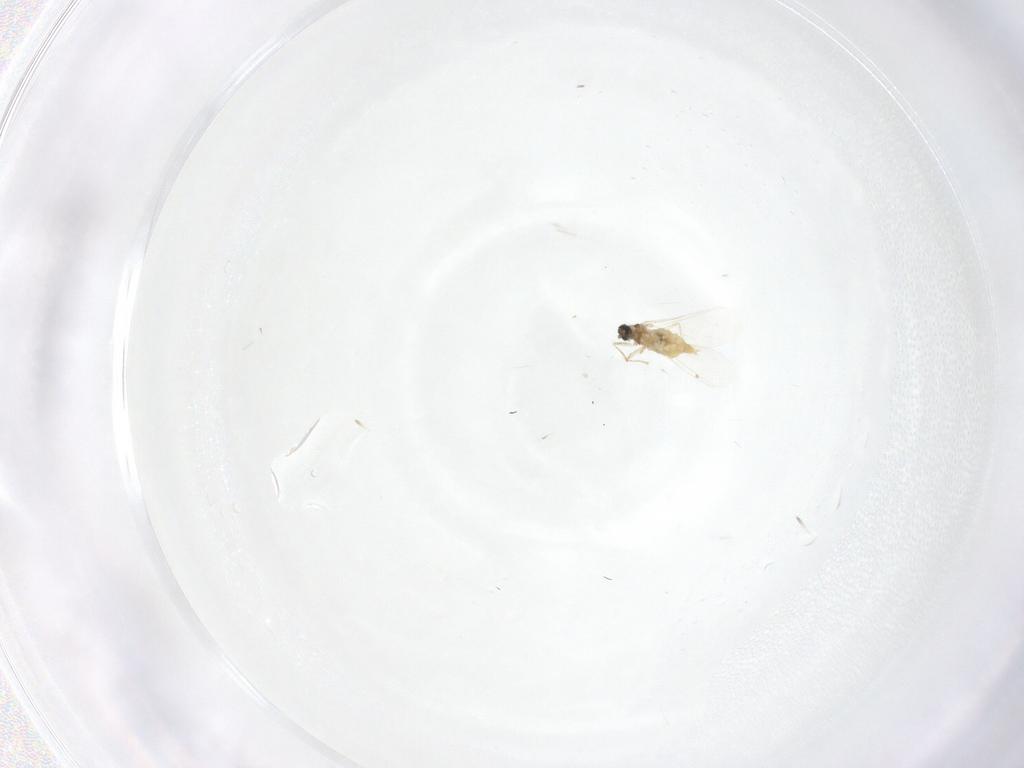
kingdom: Animalia
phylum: Arthropoda
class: Insecta
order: Diptera
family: Cecidomyiidae
